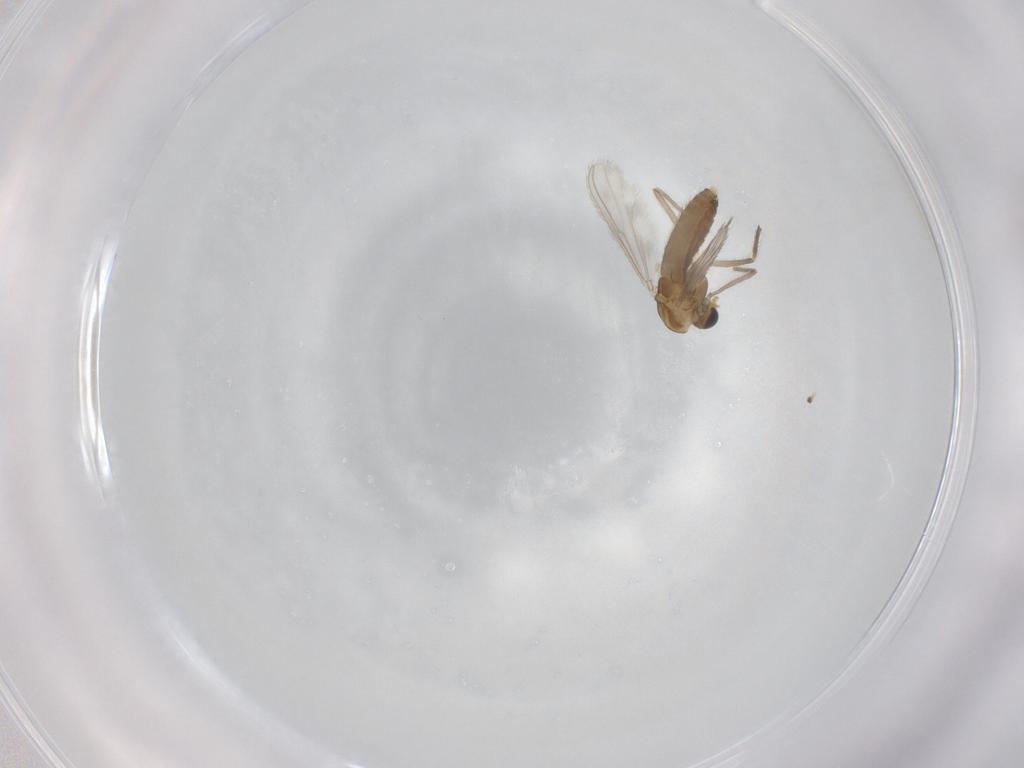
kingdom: Animalia
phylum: Arthropoda
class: Insecta
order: Diptera
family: Chironomidae
